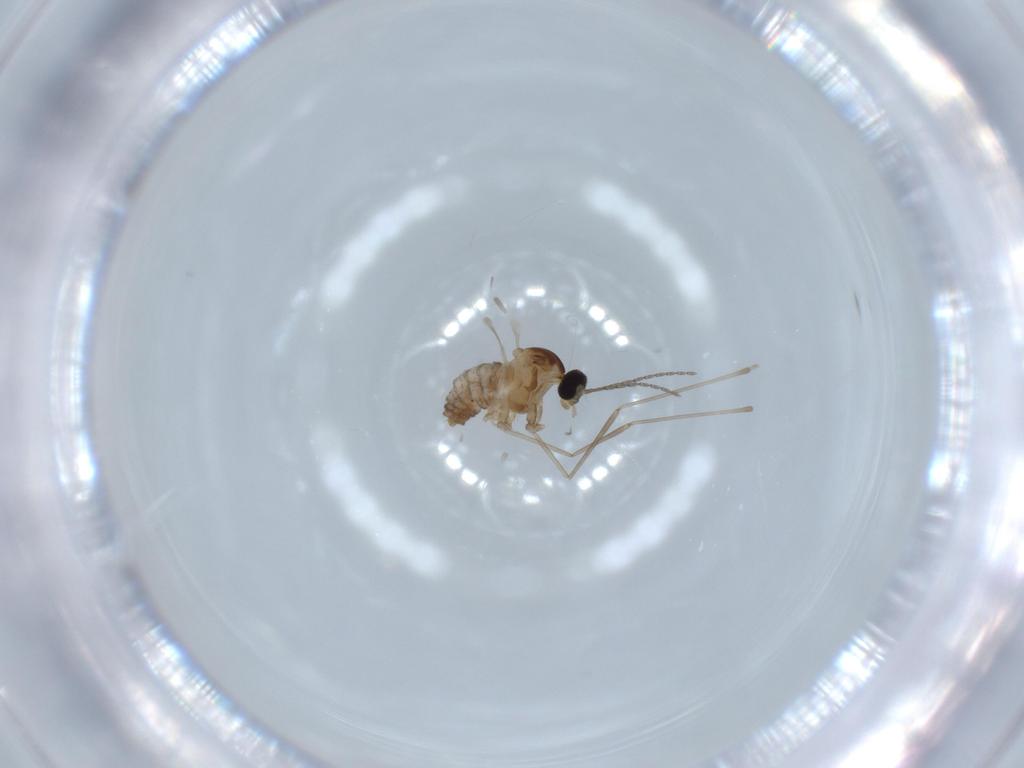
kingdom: Animalia
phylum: Arthropoda
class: Insecta
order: Diptera
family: Cecidomyiidae
